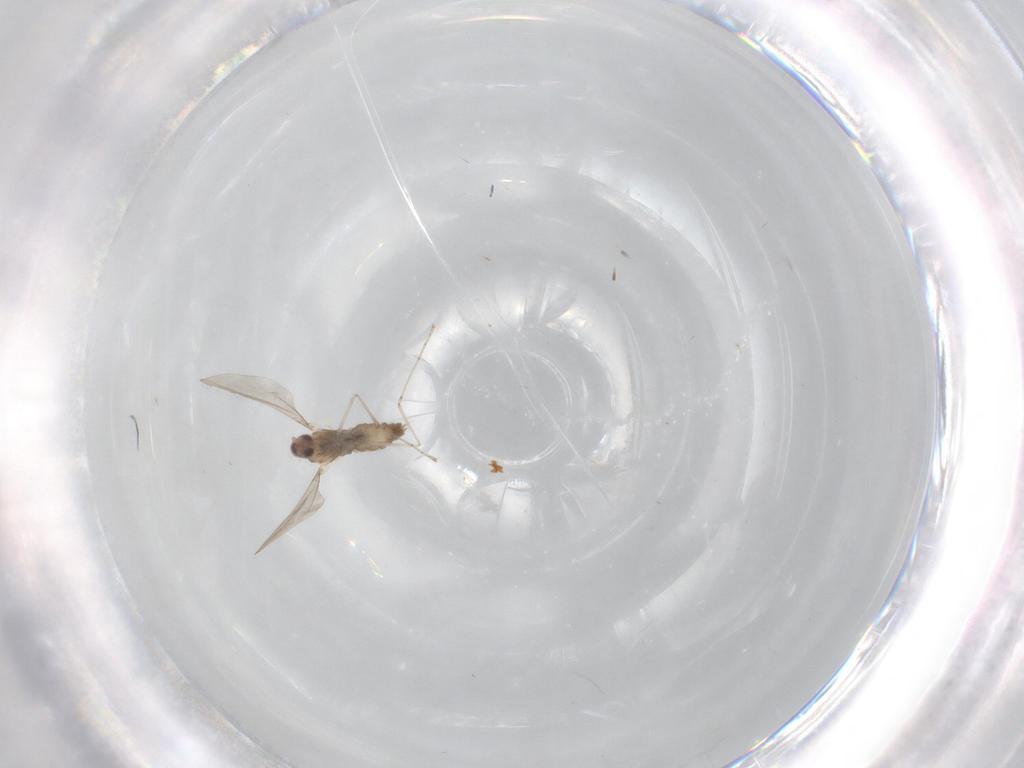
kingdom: Animalia
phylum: Arthropoda
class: Insecta
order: Diptera
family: Cecidomyiidae
